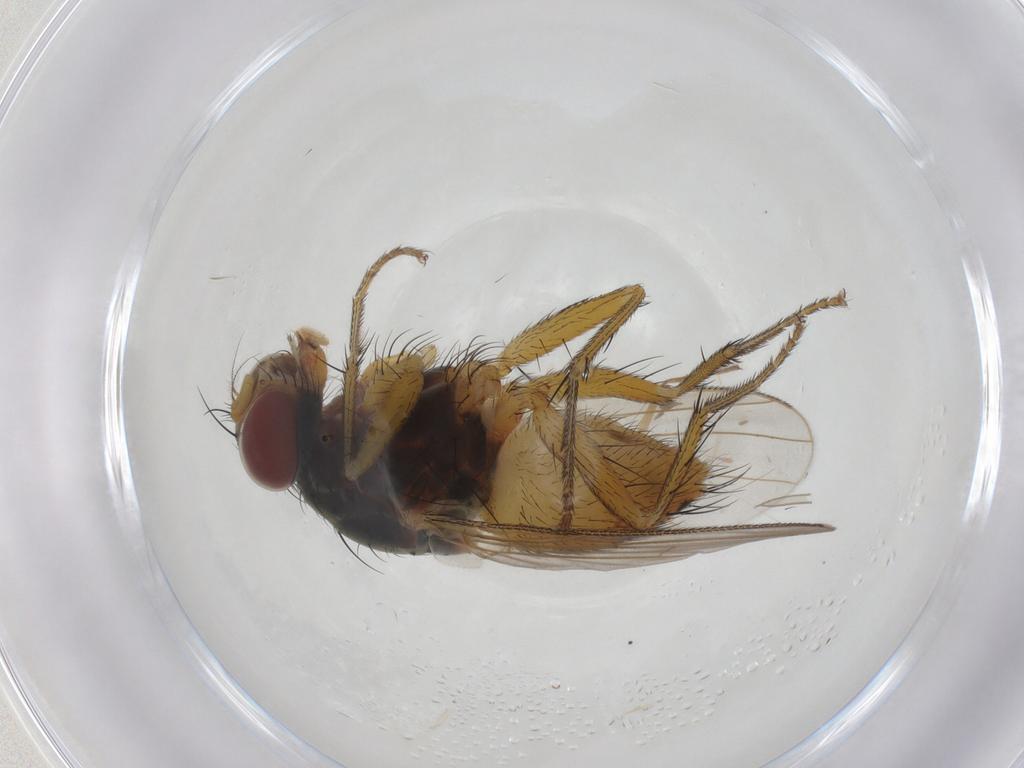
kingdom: Animalia
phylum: Arthropoda
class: Insecta
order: Diptera
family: Muscidae
